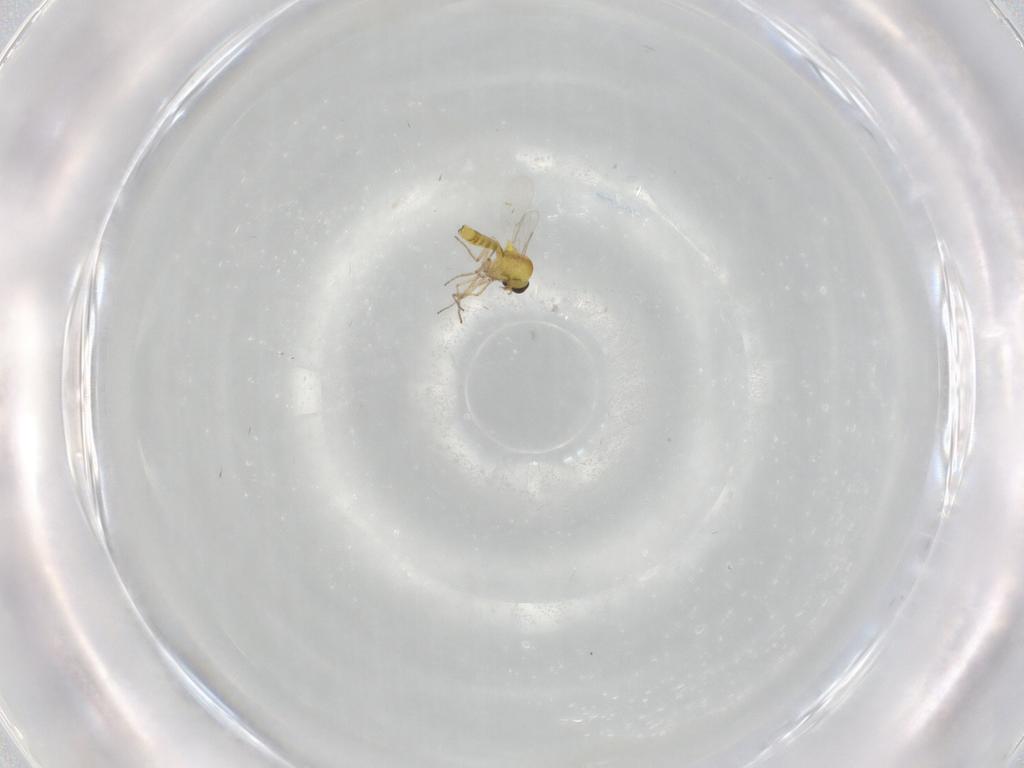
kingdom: Animalia
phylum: Arthropoda
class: Insecta
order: Diptera
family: Ceratopogonidae
